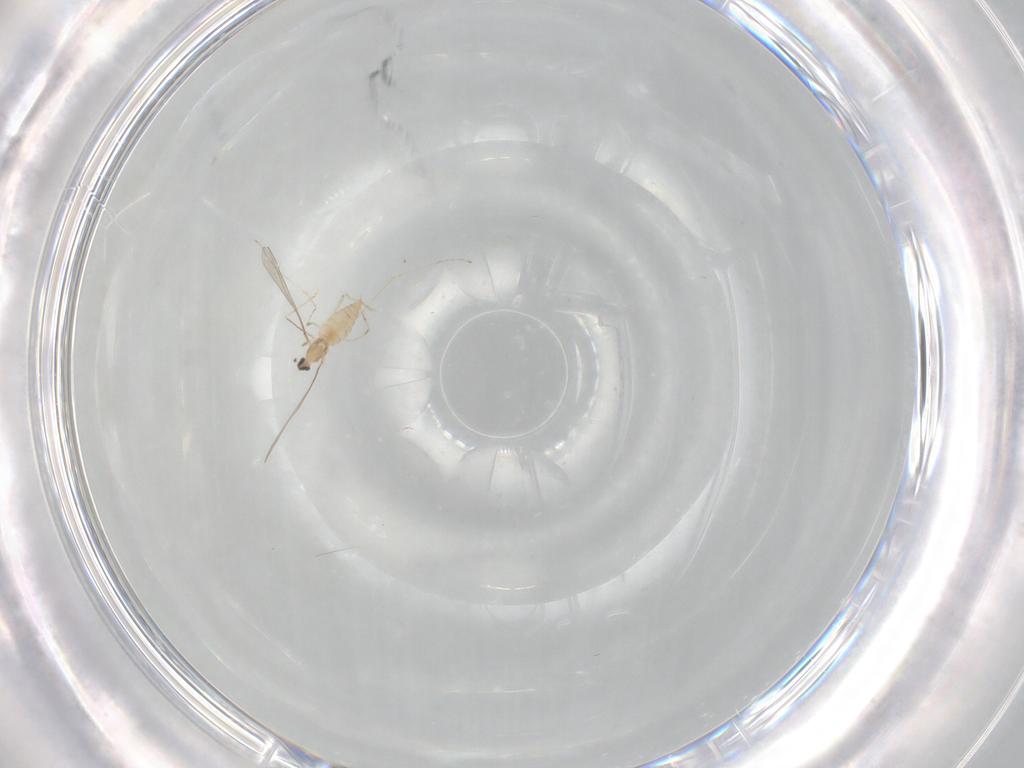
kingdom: Animalia
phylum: Arthropoda
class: Insecta
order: Diptera
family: Cecidomyiidae
